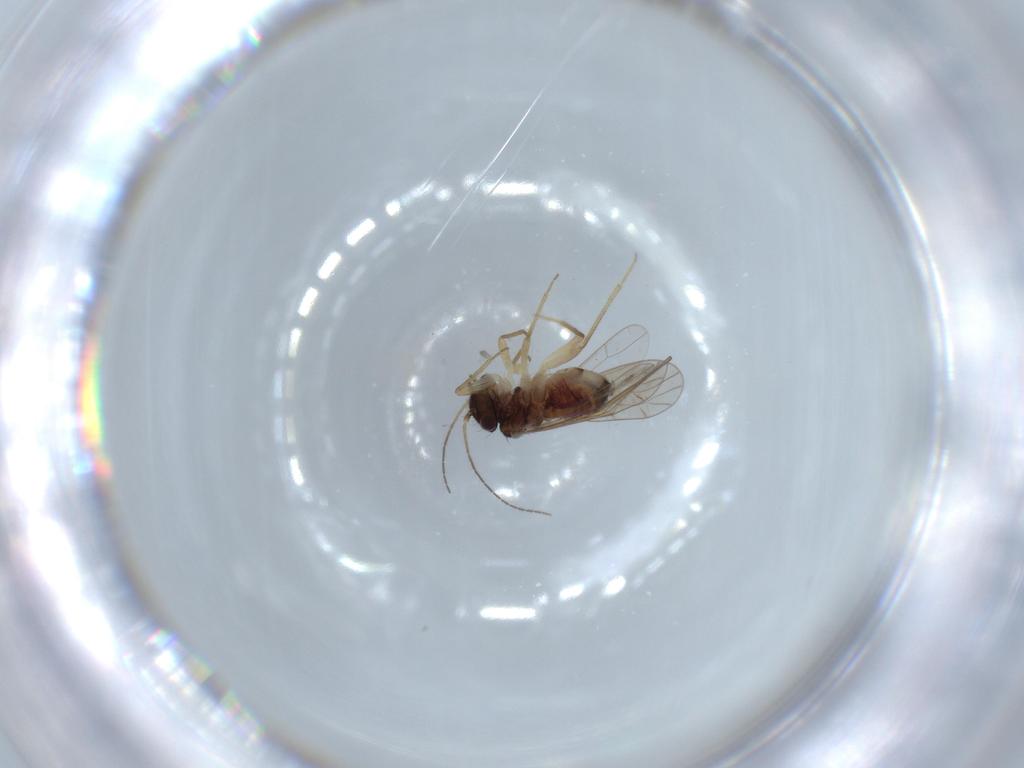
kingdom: Animalia
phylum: Arthropoda
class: Insecta
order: Psocodea
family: Ectopsocidae
